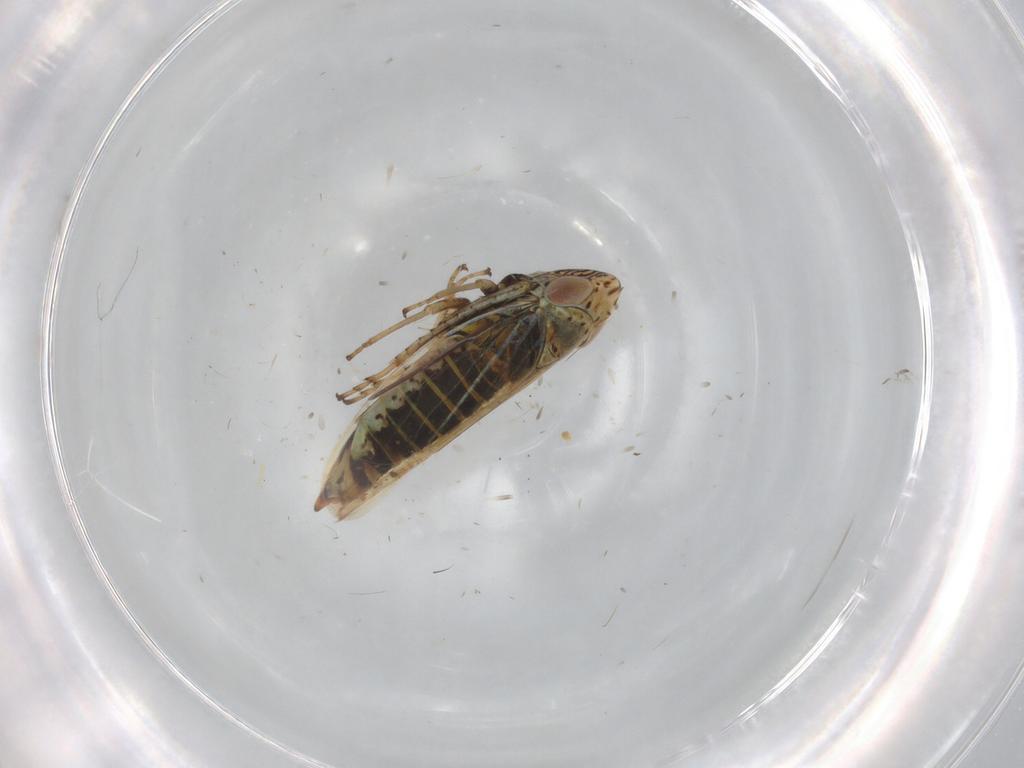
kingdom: Animalia
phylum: Arthropoda
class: Insecta
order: Hemiptera
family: Cicadellidae
